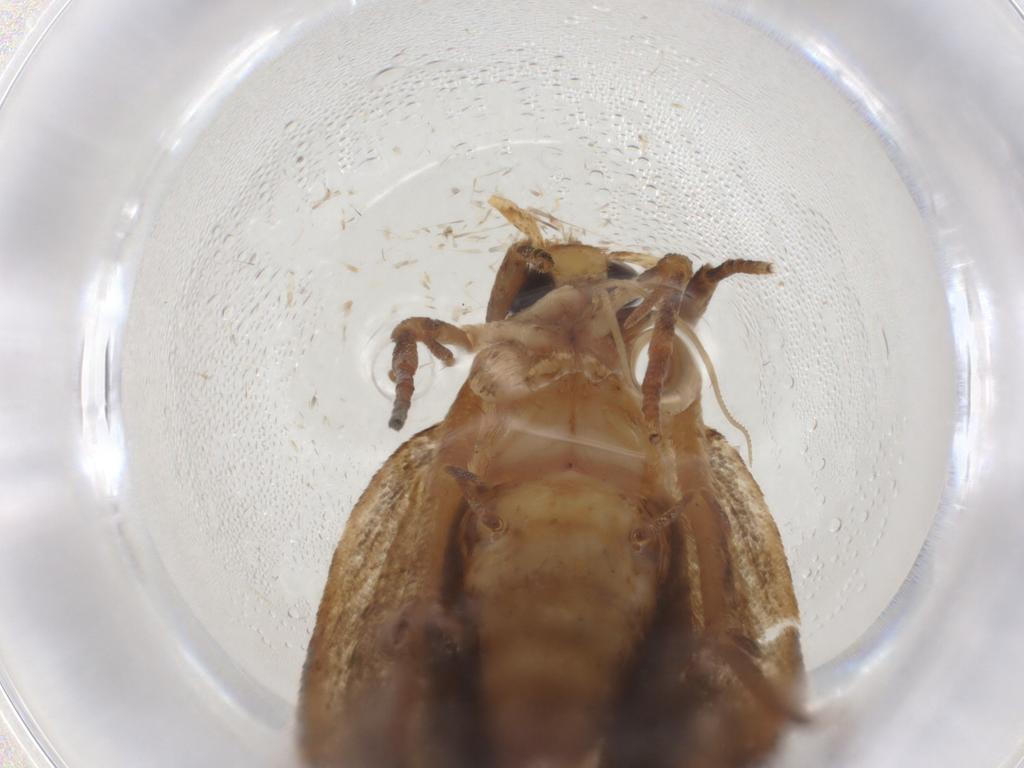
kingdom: Animalia
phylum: Arthropoda
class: Insecta
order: Lepidoptera
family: Autostichidae
